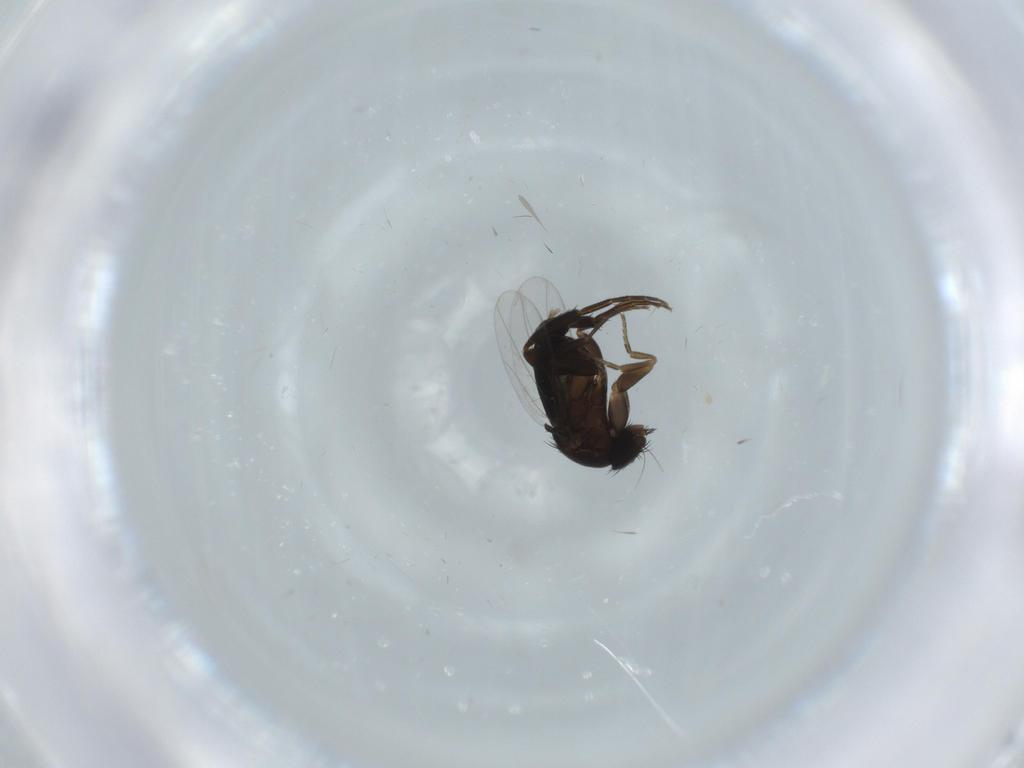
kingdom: Animalia
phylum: Arthropoda
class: Insecta
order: Diptera
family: Phoridae
